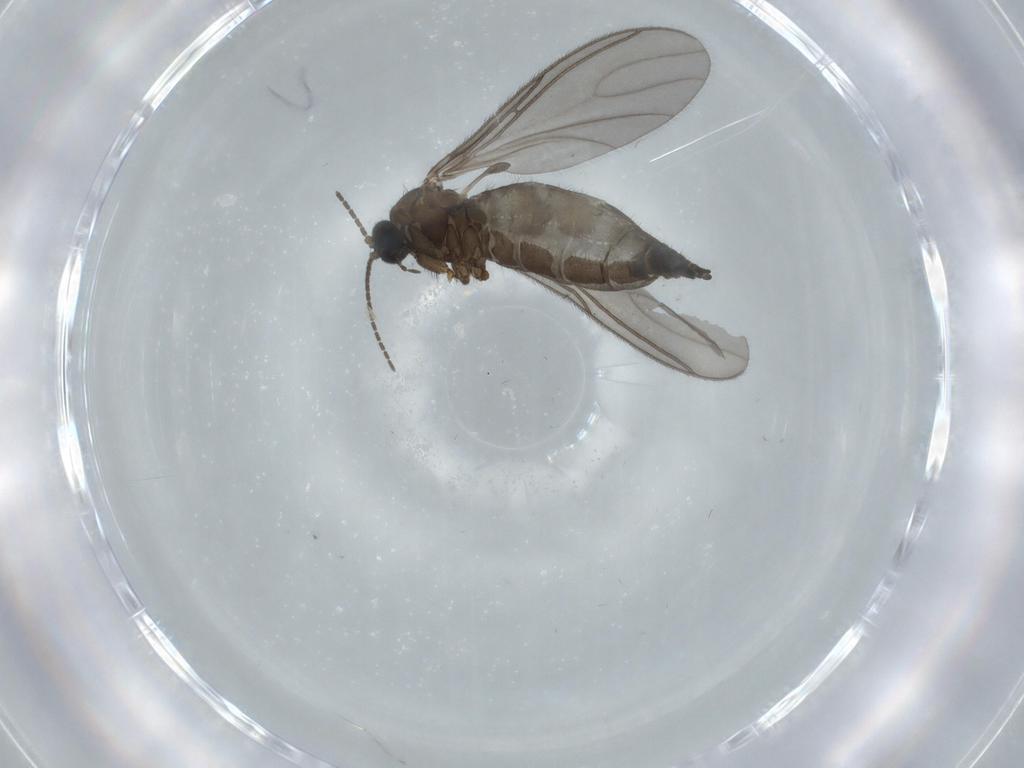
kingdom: Animalia
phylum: Arthropoda
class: Insecta
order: Diptera
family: Sciaridae
